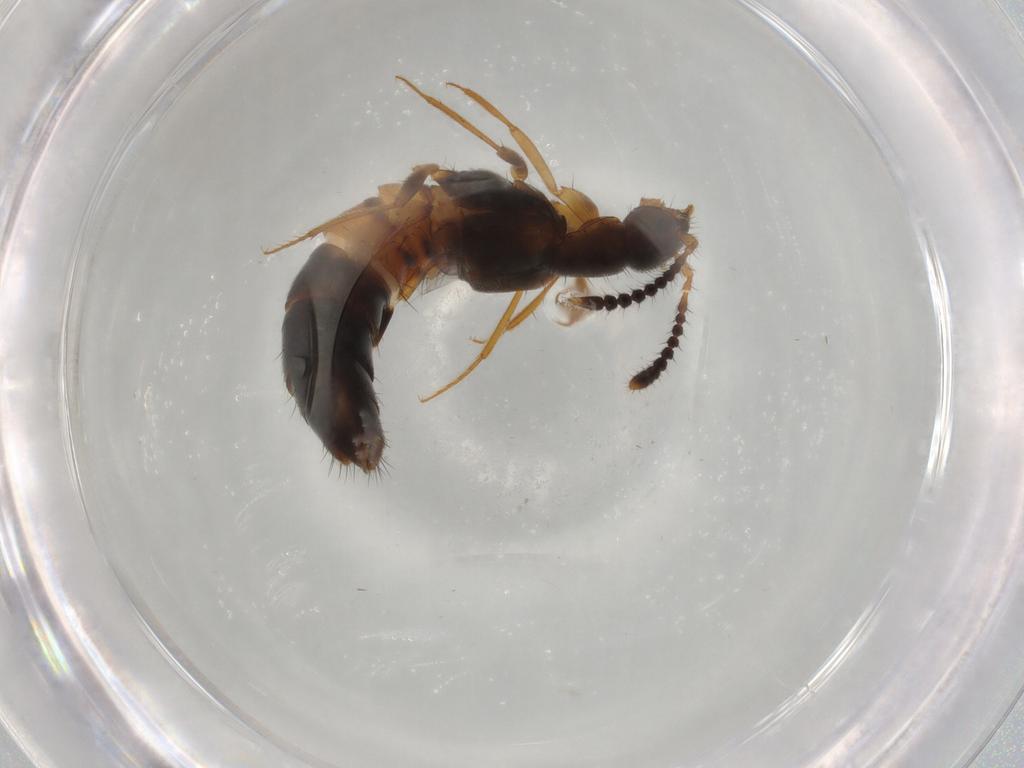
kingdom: Animalia
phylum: Arthropoda
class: Insecta
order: Coleoptera
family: Staphylinidae
